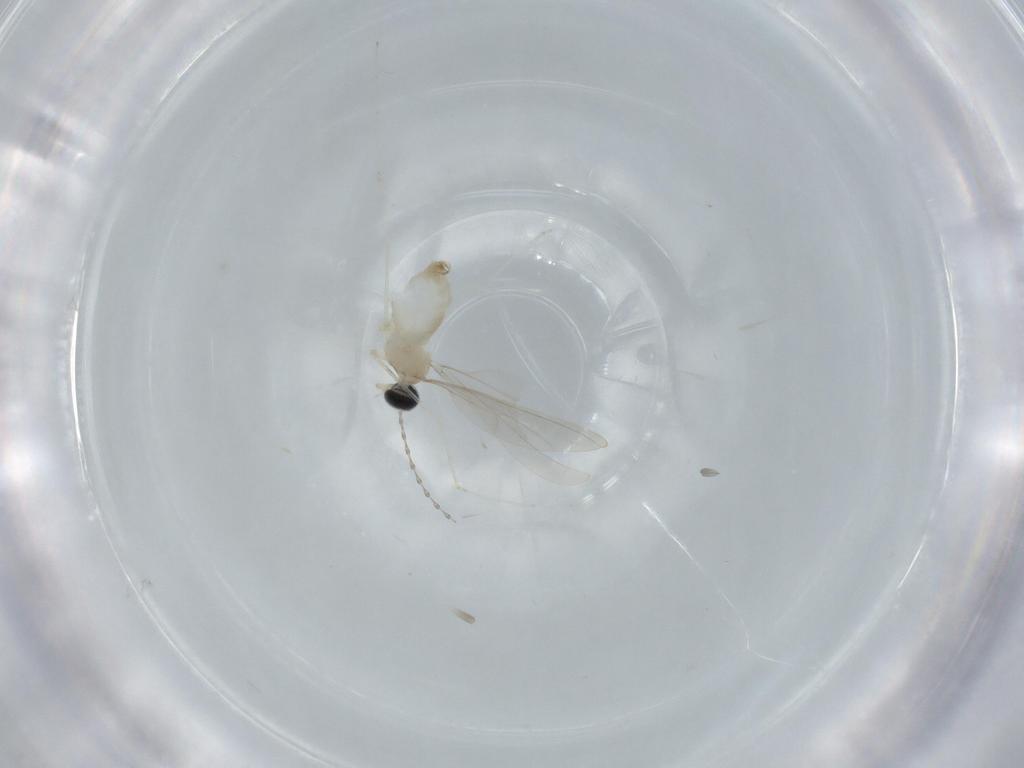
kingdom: Animalia
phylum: Arthropoda
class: Insecta
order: Diptera
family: Cecidomyiidae
